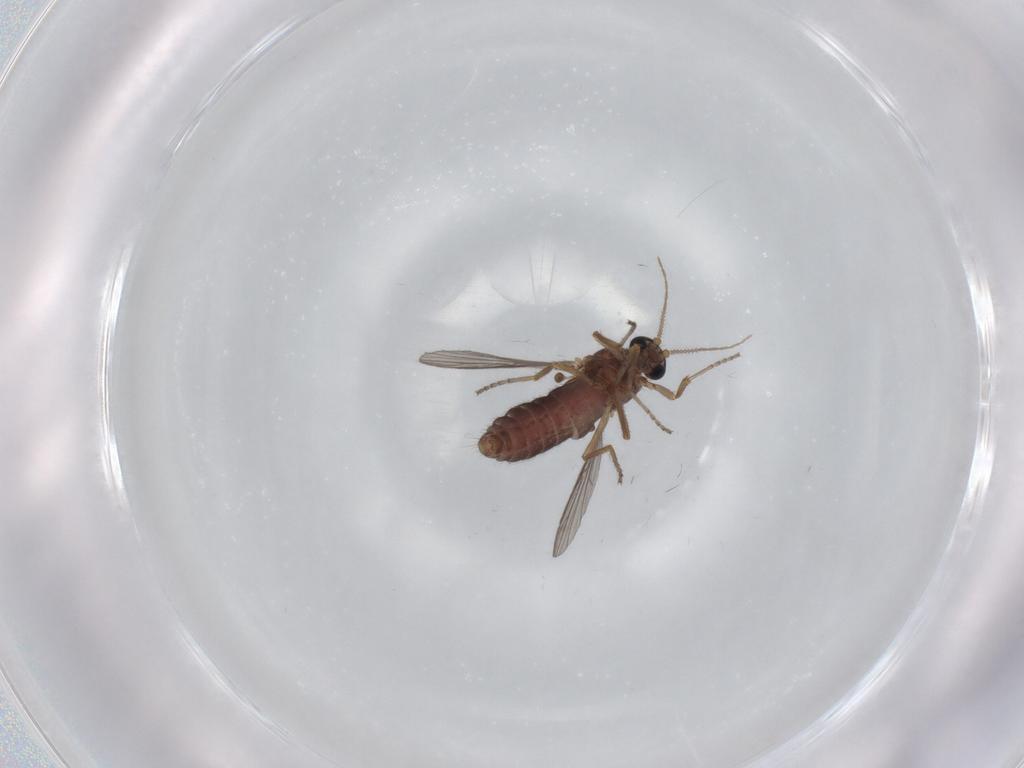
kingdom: Animalia
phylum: Arthropoda
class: Insecta
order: Diptera
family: Ceratopogonidae
